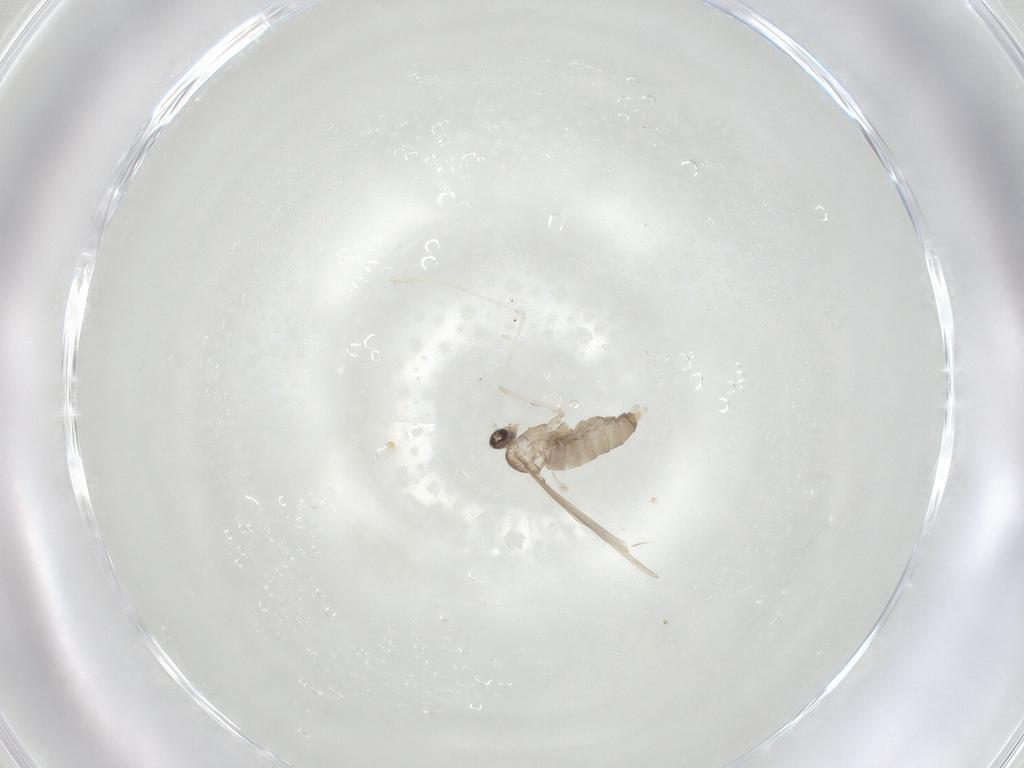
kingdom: Animalia
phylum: Arthropoda
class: Insecta
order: Diptera
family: Cecidomyiidae
